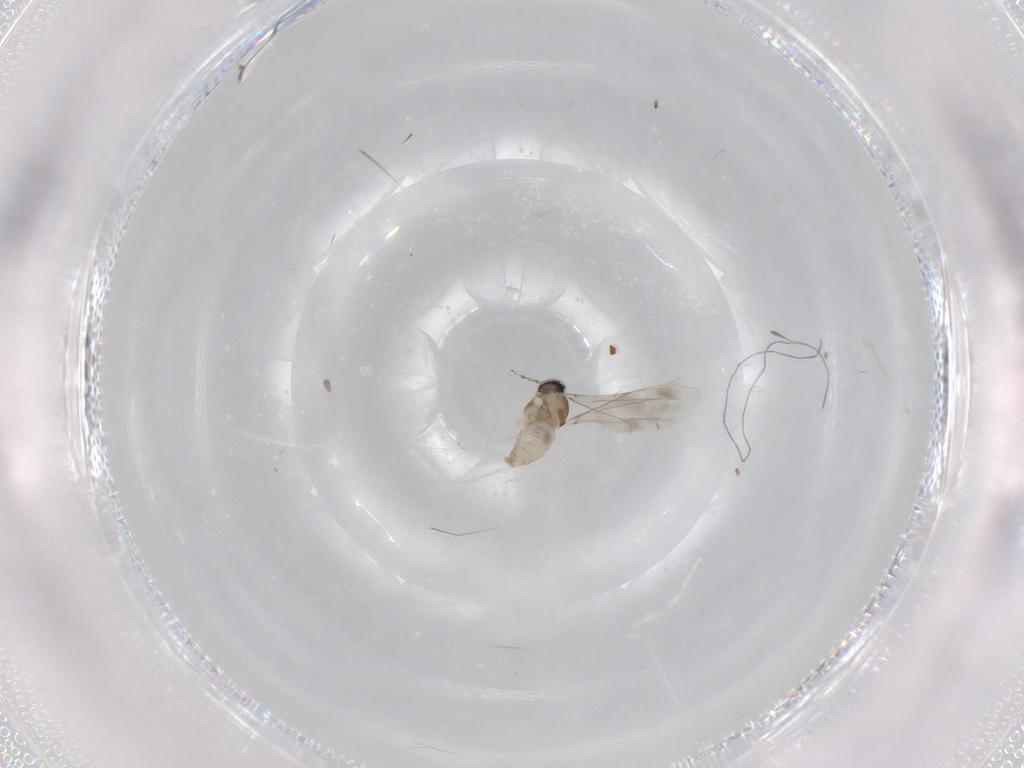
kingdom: Animalia
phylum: Arthropoda
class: Insecta
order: Diptera
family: Cecidomyiidae
